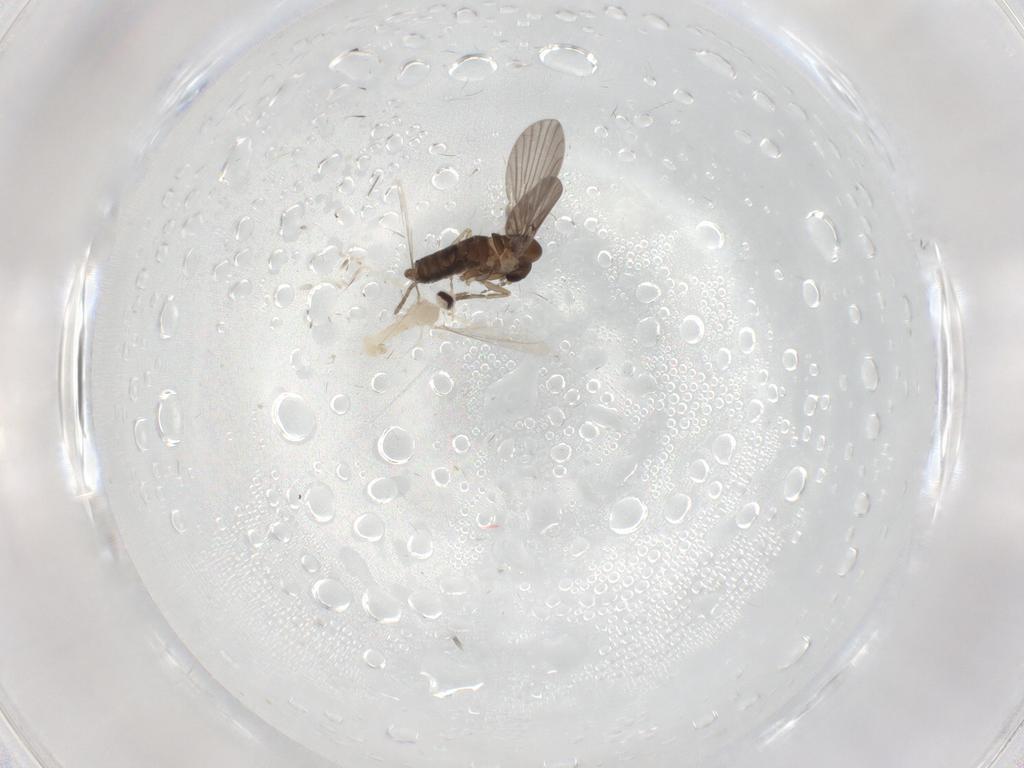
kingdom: Animalia
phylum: Arthropoda
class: Insecta
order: Diptera
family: Mycetophilidae
